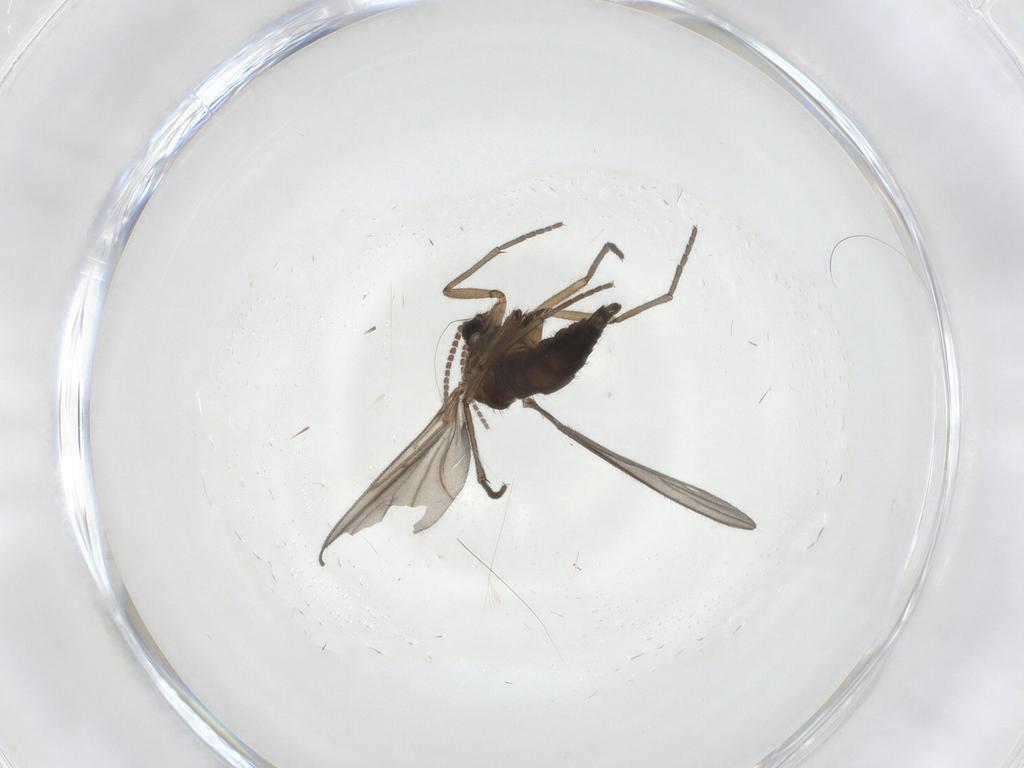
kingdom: Animalia
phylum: Arthropoda
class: Insecta
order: Diptera
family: Sciaridae
